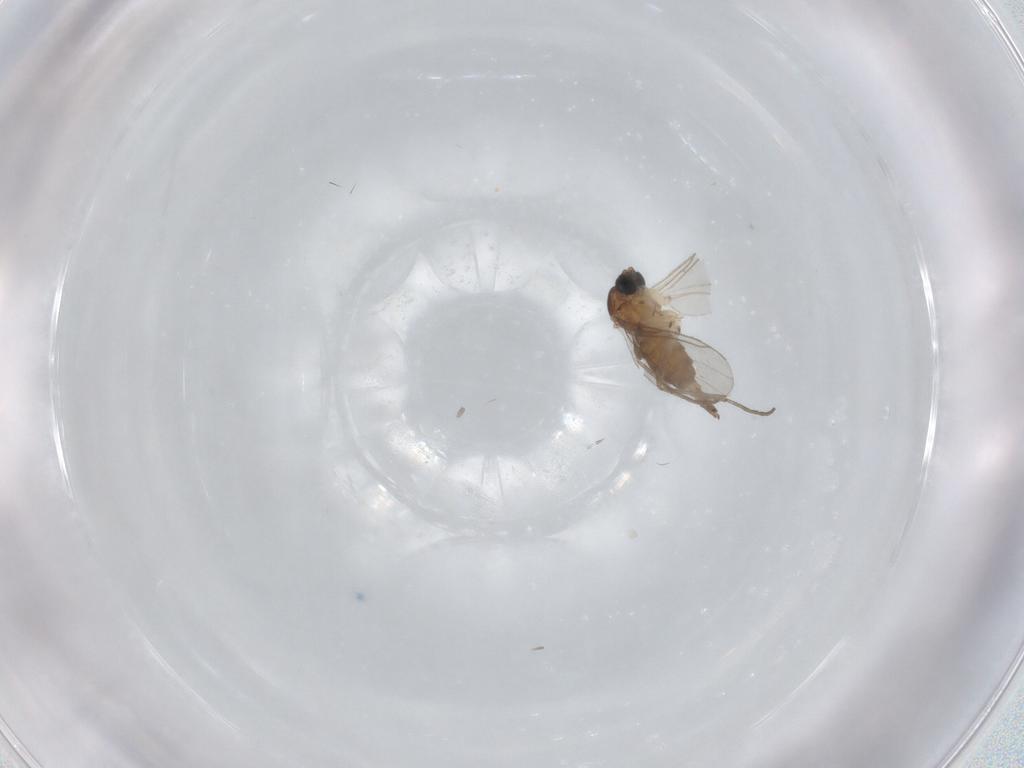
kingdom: Animalia
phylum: Arthropoda
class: Insecta
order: Diptera
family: Sciaridae
